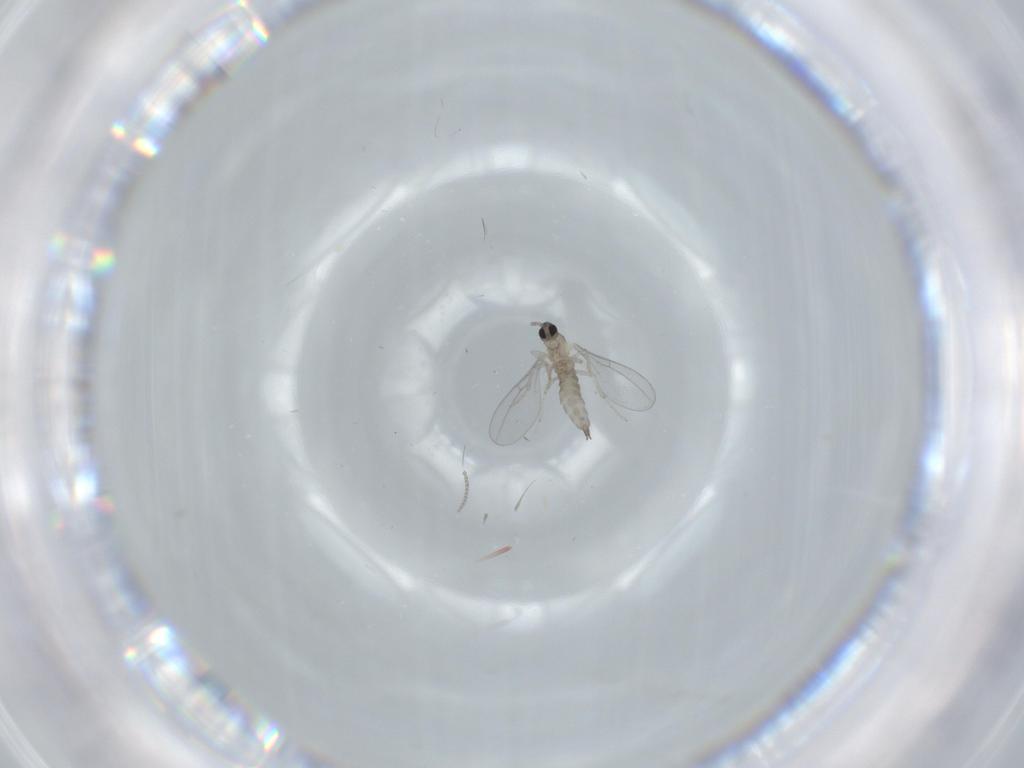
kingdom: Animalia
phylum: Arthropoda
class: Insecta
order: Diptera
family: Cecidomyiidae
